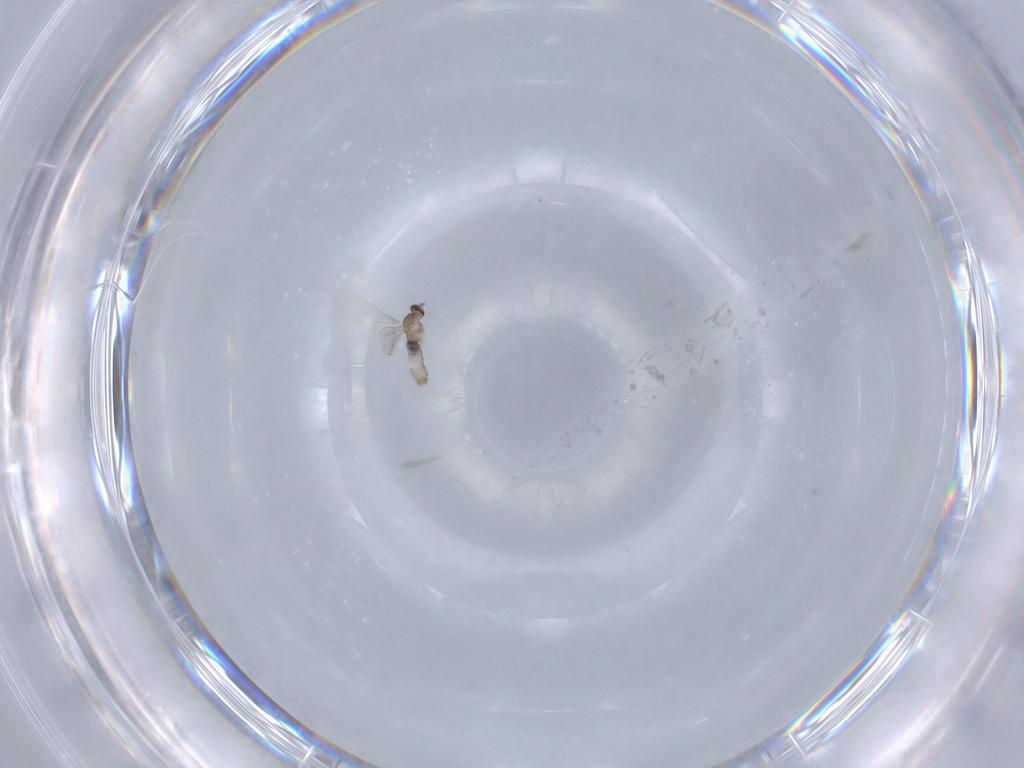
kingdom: Animalia
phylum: Arthropoda
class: Insecta
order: Diptera
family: Cecidomyiidae
